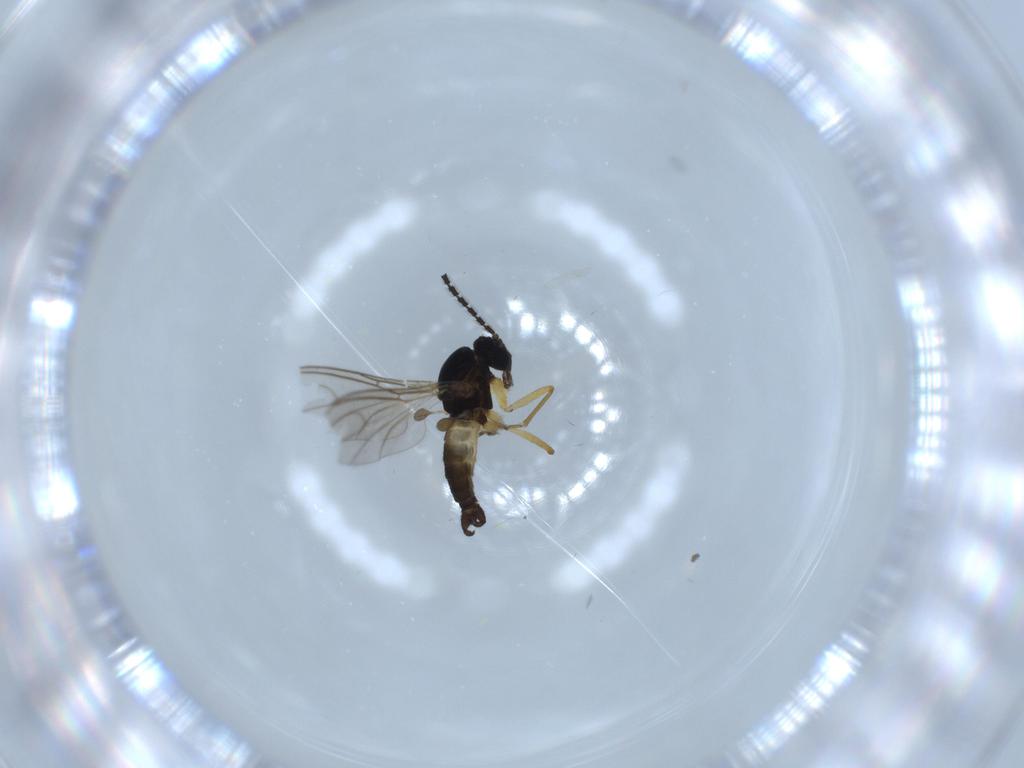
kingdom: Animalia
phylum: Arthropoda
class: Insecta
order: Diptera
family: Sciaridae
